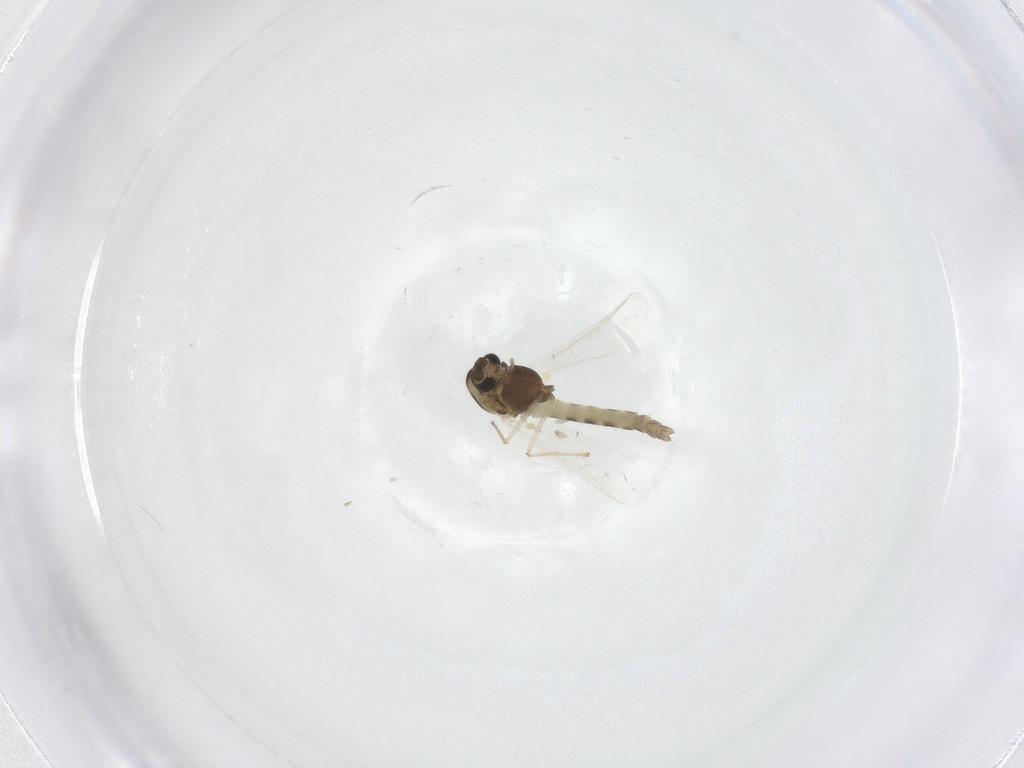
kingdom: Animalia
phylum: Arthropoda
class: Insecta
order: Diptera
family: Chironomidae
